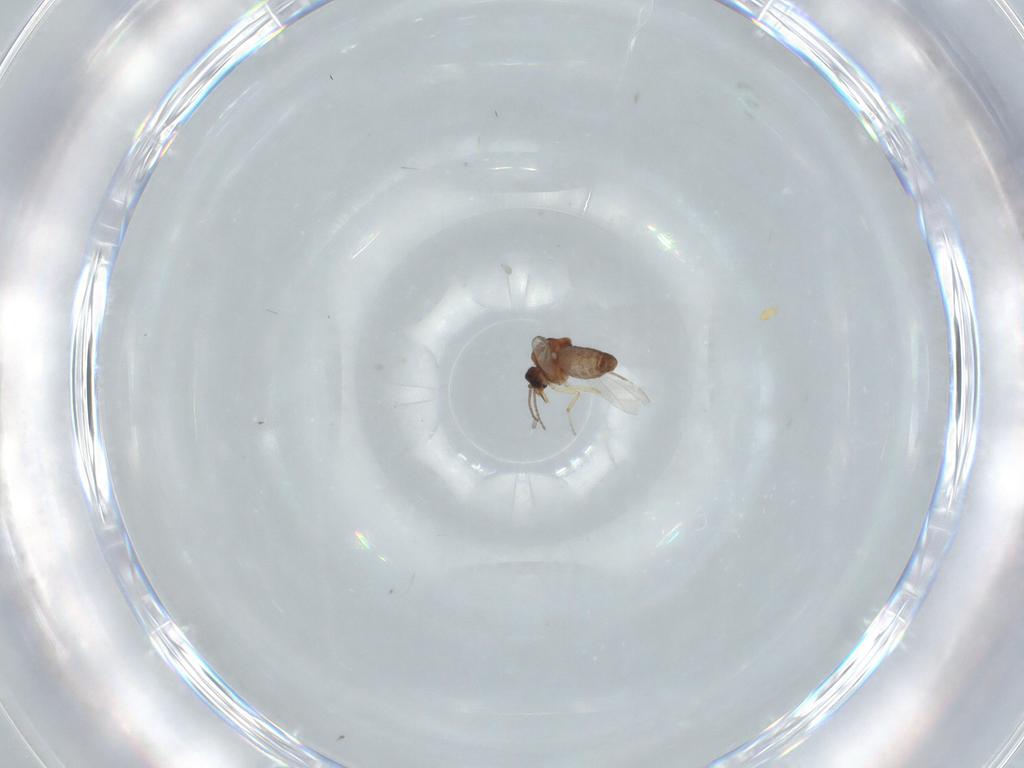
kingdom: Animalia
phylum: Arthropoda
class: Insecta
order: Diptera
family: Ceratopogonidae
